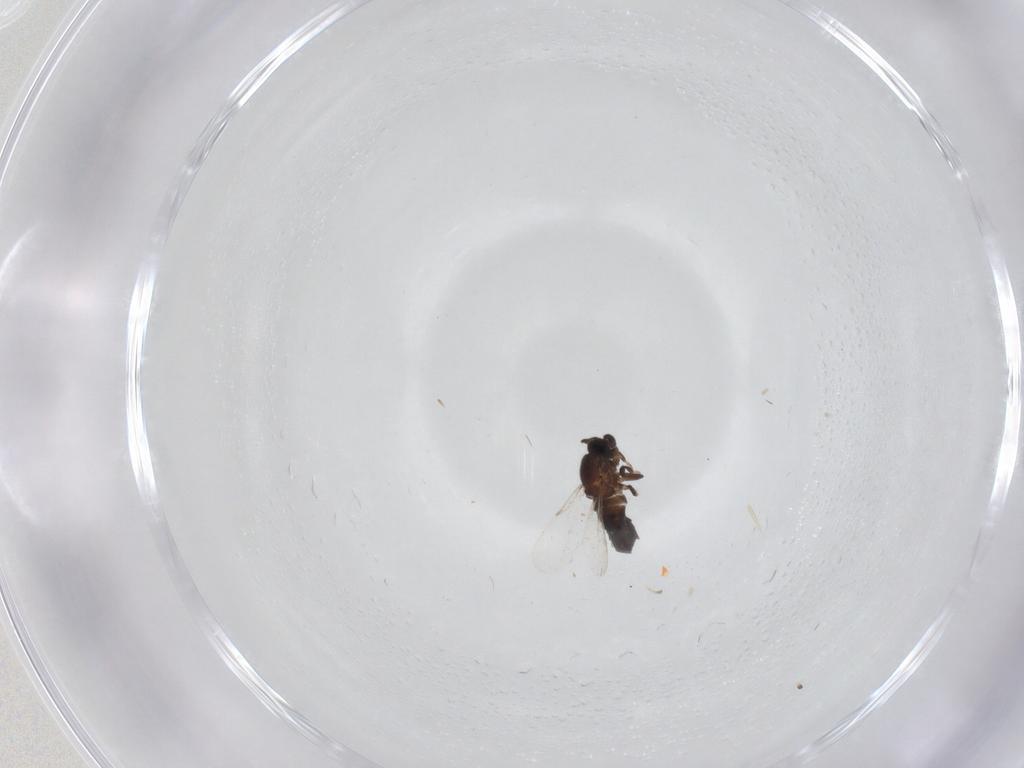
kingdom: Animalia
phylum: Arthropoda
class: Insecta
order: Diptera
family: Scatopsidae
